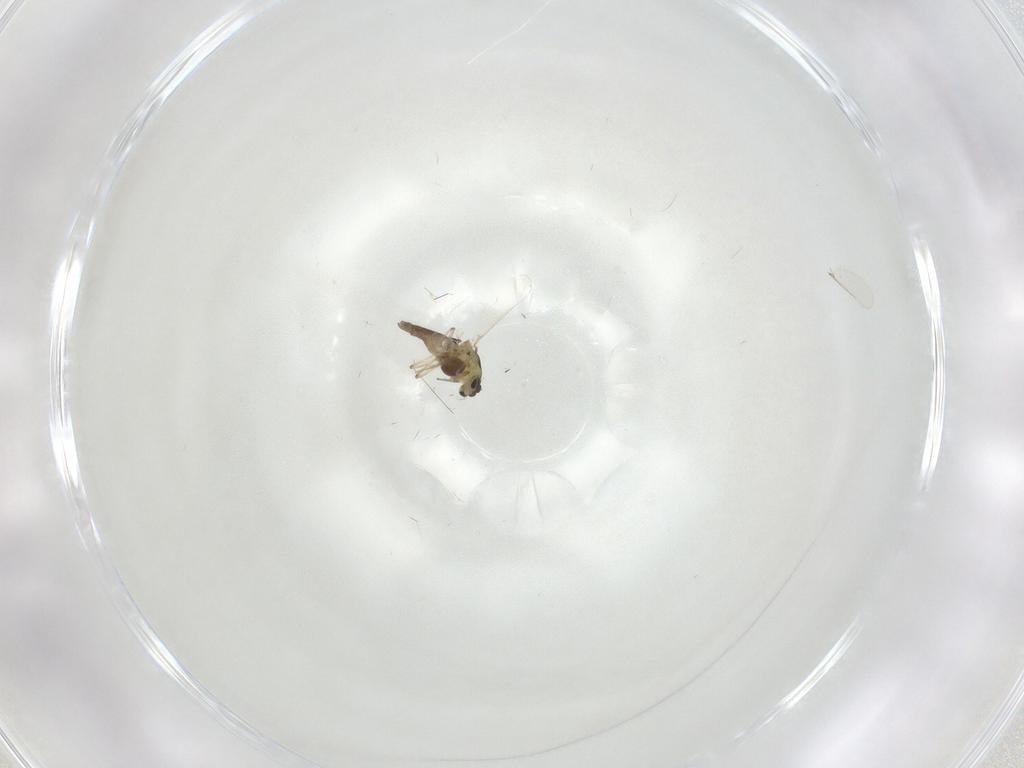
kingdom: Animalia
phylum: Arthropoda
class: Insecta
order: Diptera
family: Chironomidae
